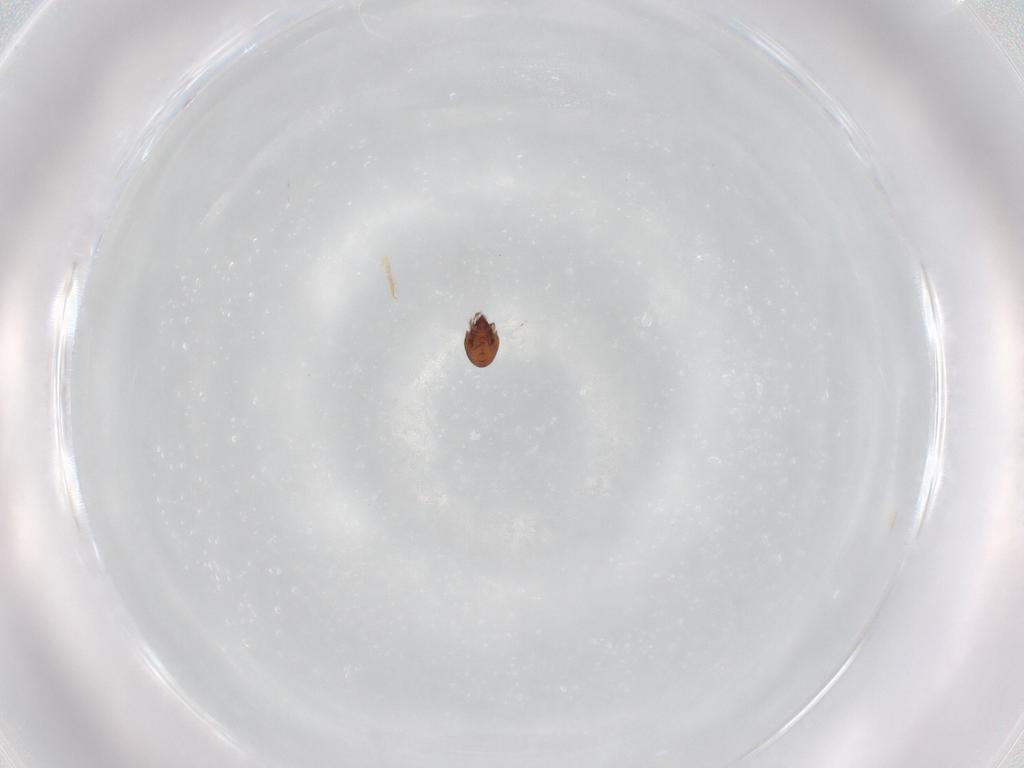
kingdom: Animalia
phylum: Arthropoda
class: Arachnida
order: Sarcoptiformes
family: Ceratozetidae
